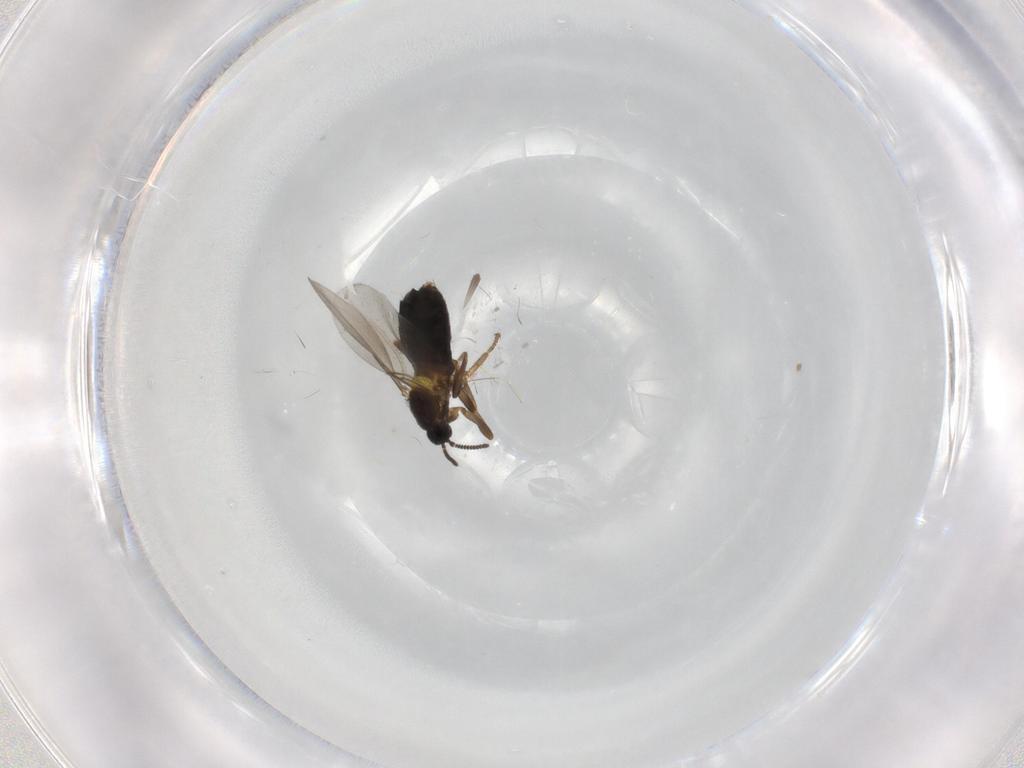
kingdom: Animalia
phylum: Arthropoda
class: Insecta
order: Diptera
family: Scatopsidae
